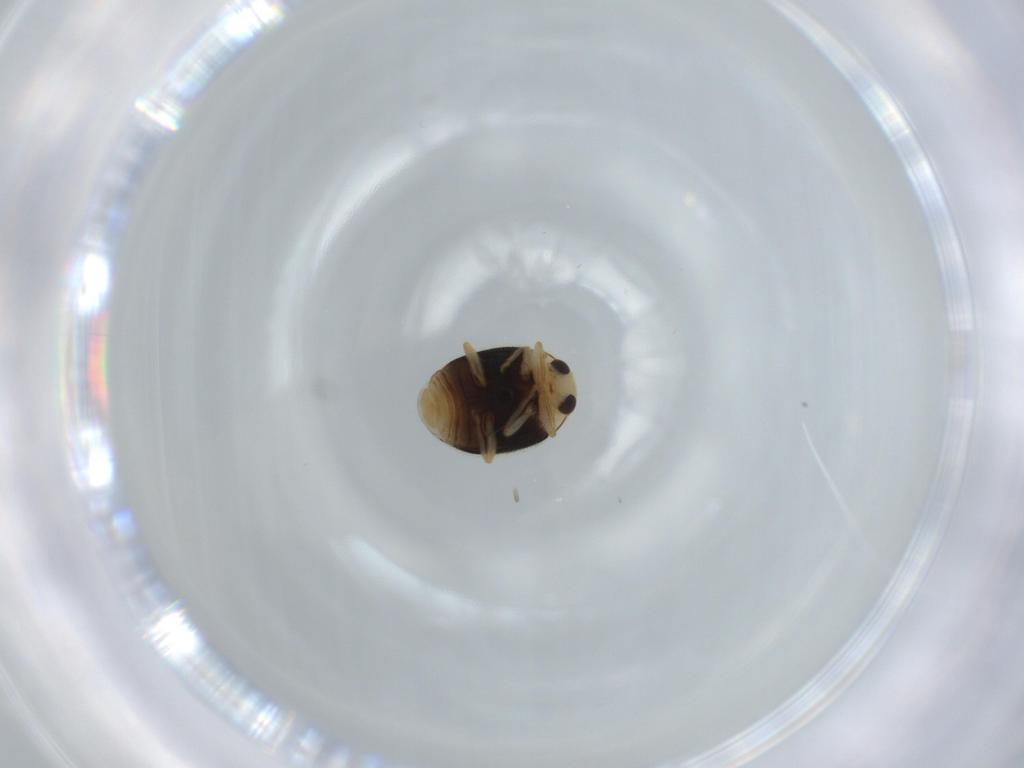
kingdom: Animalia
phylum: Arthropoda
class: Insecta
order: Coleoptera
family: Coccinellidae
